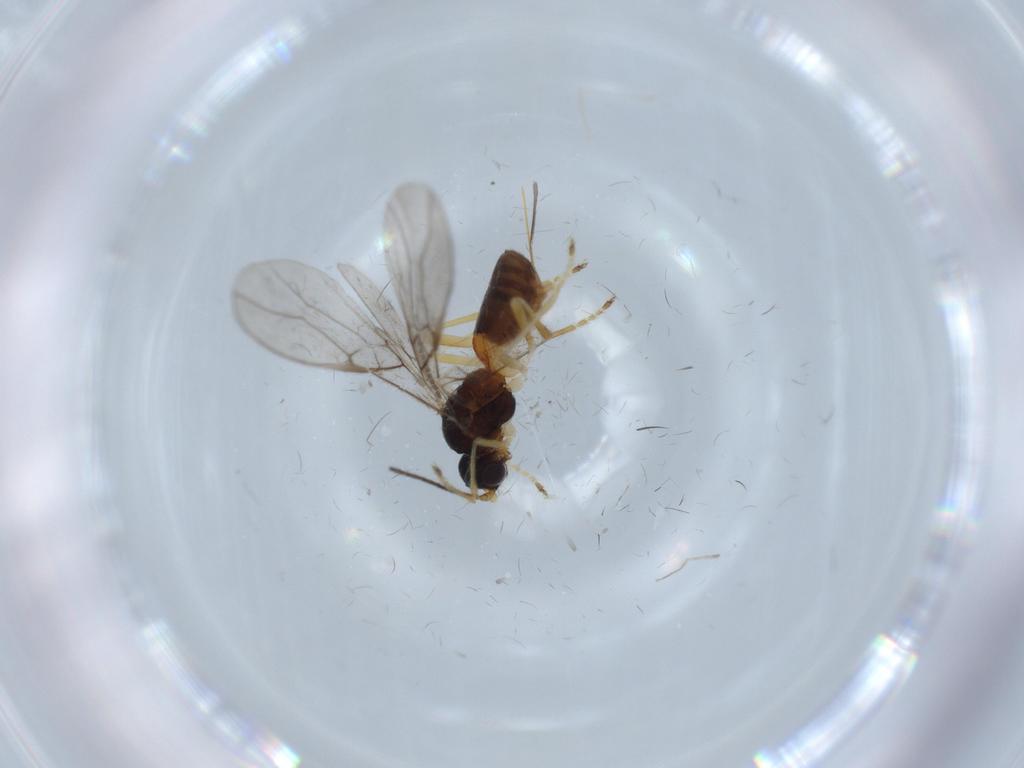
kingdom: Animalia
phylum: Arthropoda
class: Insecta
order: Hymenoptera
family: Braconidae
